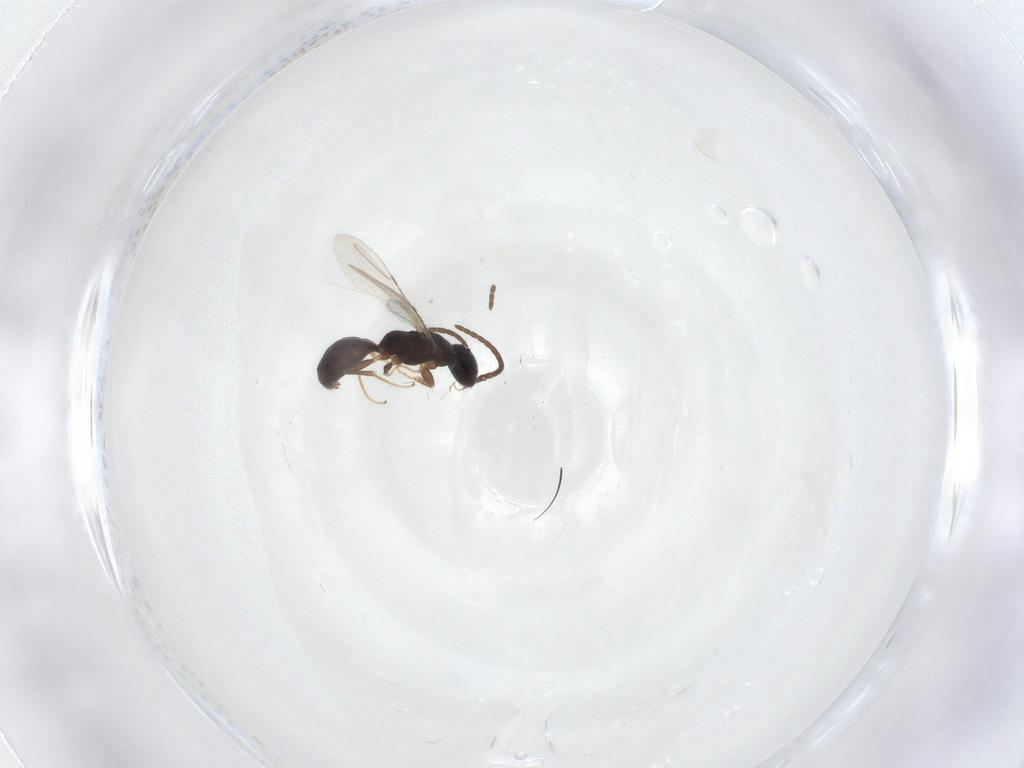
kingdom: Animalia
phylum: Arthropoda
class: Insecta
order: Hymenoptera
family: Bethylidae
